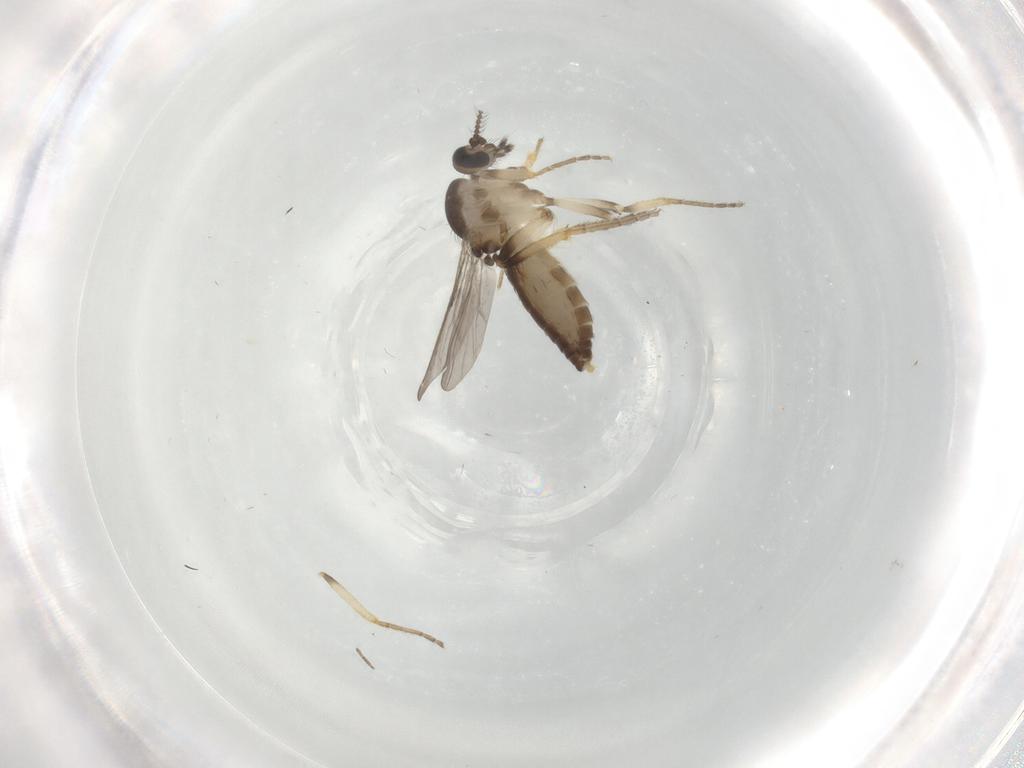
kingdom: Animalia
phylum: Arthropoda
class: Insecta
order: Diptera
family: Ceratopogonidae
